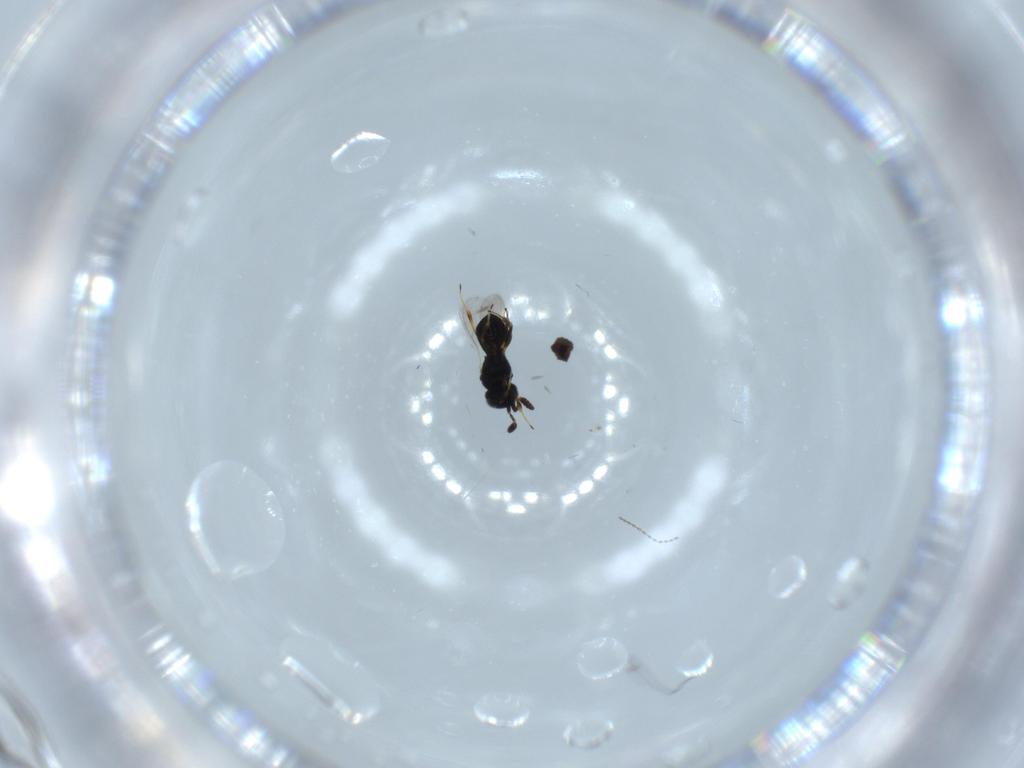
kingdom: Animalia
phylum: Arthropoda
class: Insecta
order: Hymenoptera
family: Scelionidae
